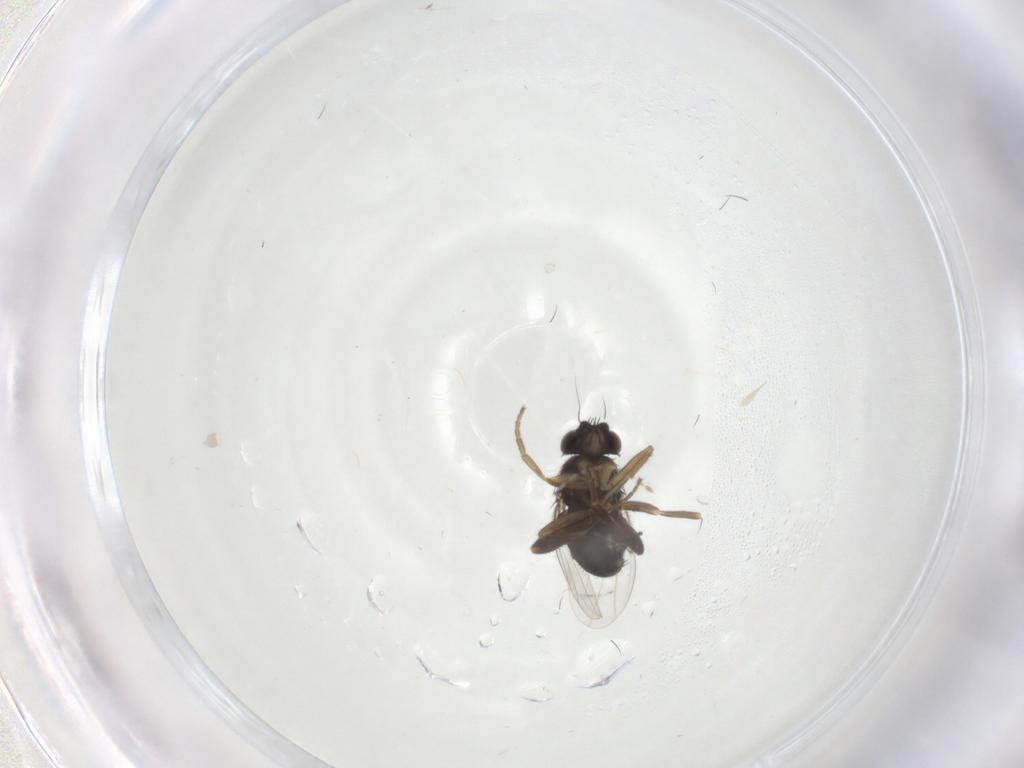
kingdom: Animalia
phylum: Arthropoda
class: Insecta
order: Diptera
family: Phoridae
